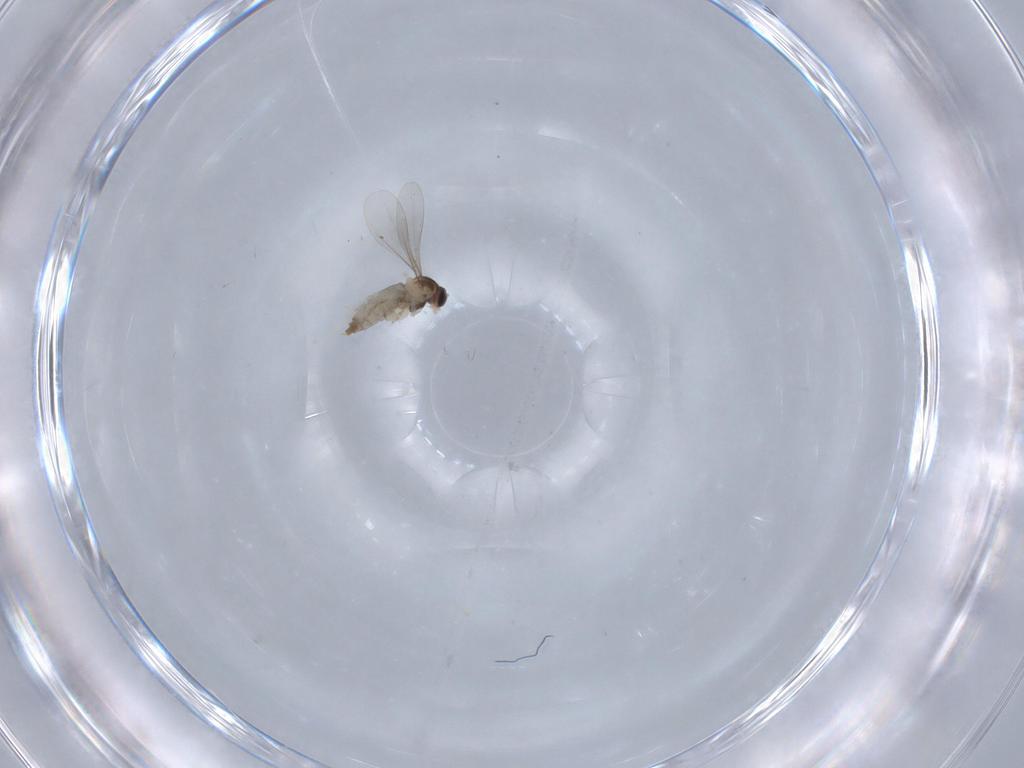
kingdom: Animalia
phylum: Arthropoda
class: Insecta
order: Diptera
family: Cecidomyiidae
